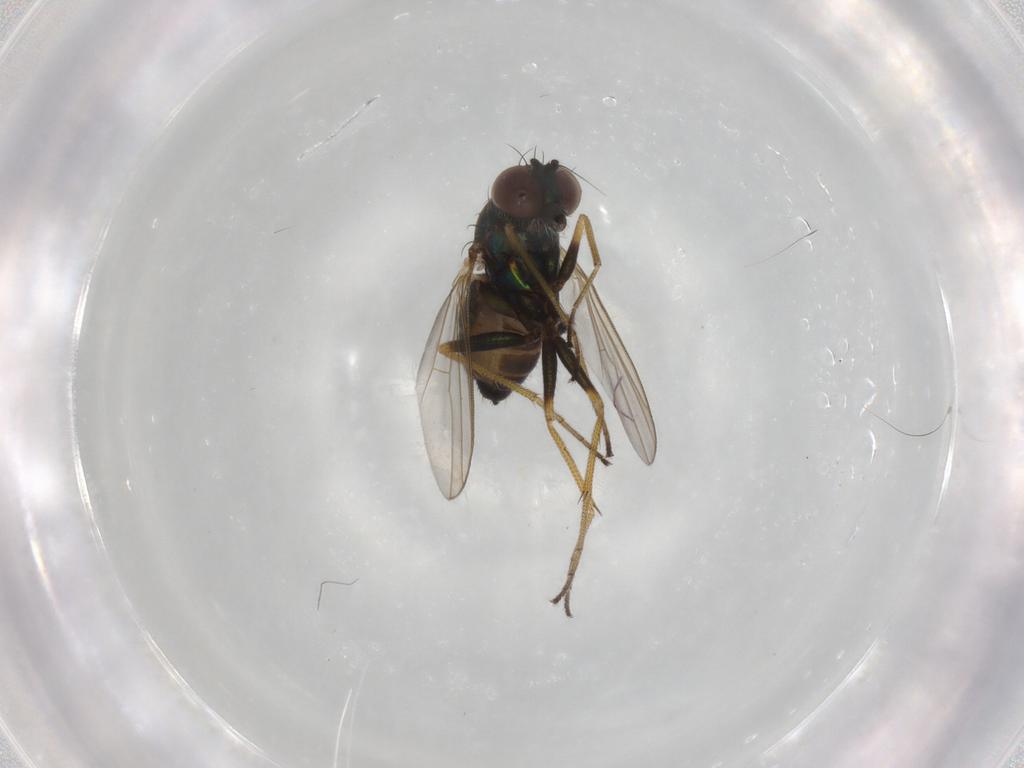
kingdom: Animalia
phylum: Arthropoda
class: Insecta
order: Diptera
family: Dolichopodidae
